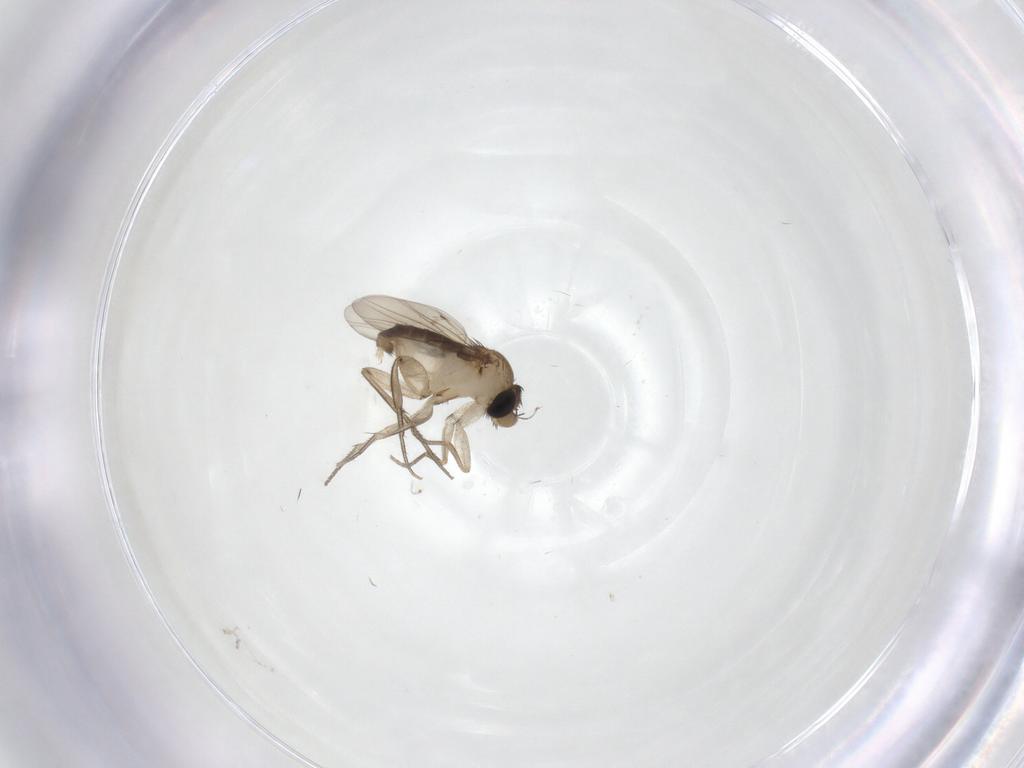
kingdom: Animalia
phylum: Arthropoda
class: Insecta
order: Diptera
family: Phoridae
